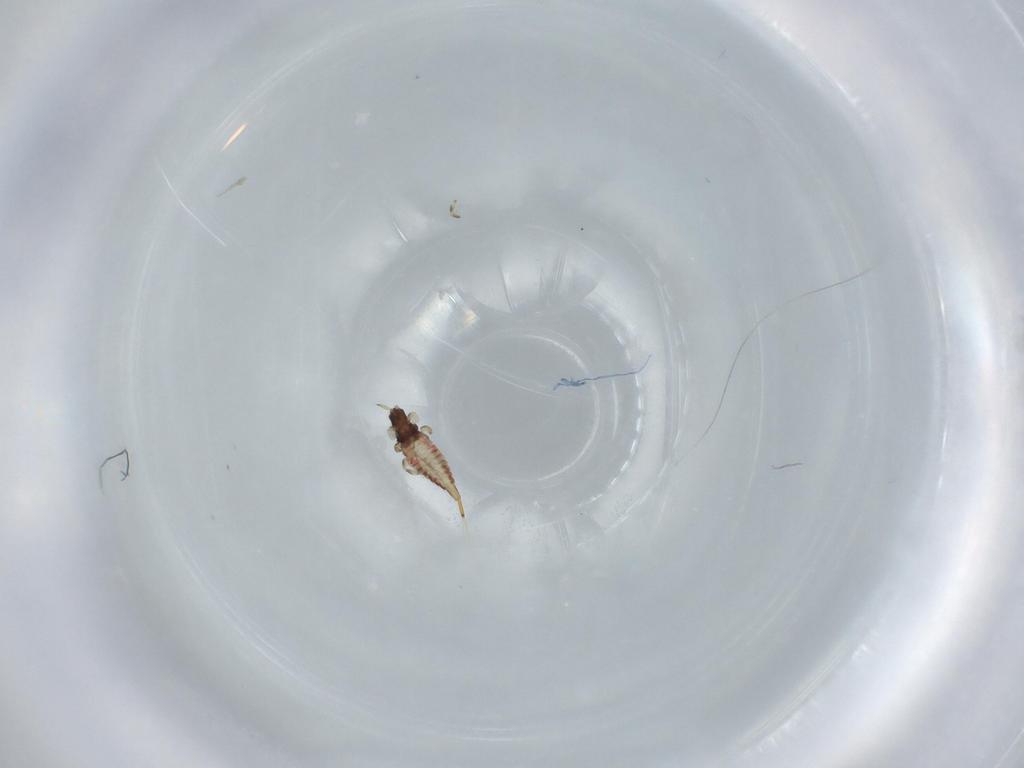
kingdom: Animalia
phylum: Arthropoda
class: Insecta
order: Thysanoptera
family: Phlaeothripidae
